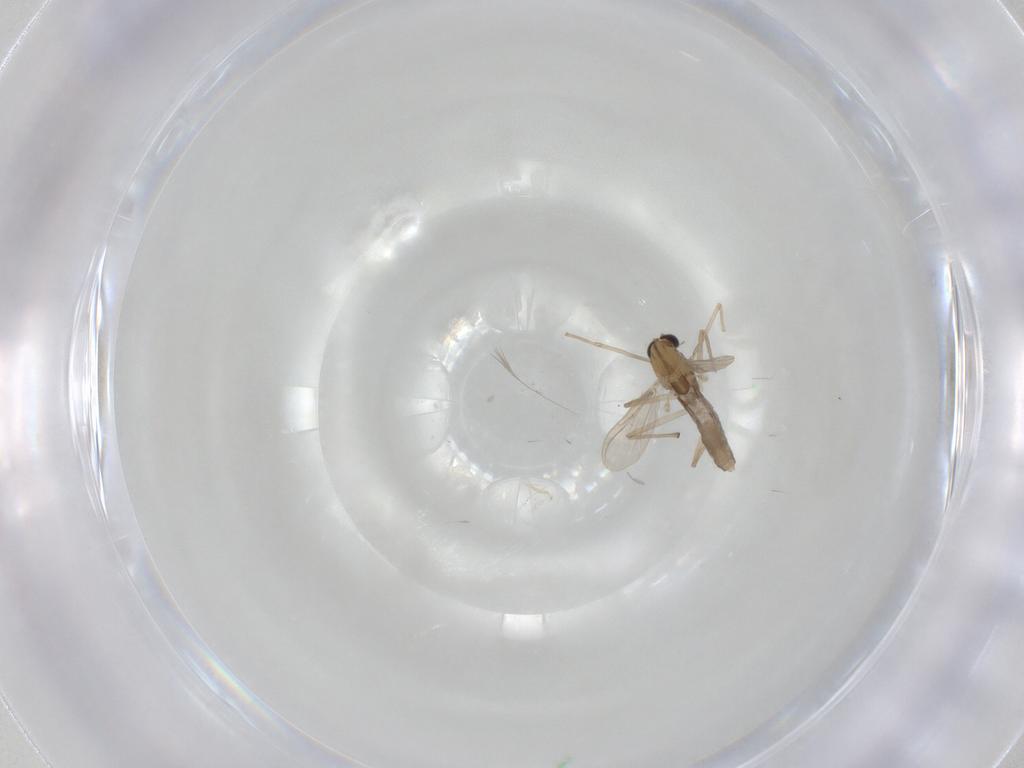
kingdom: Animalia
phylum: Arthropoda
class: Insecta
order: Diptera
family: Chironomidae
